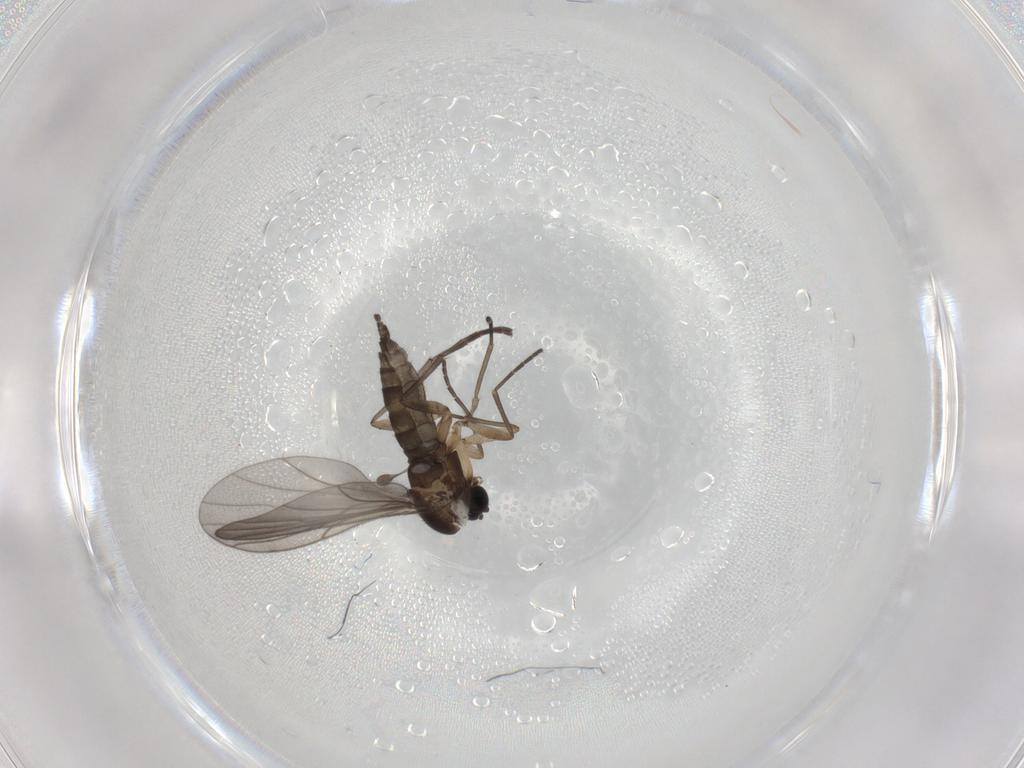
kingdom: Animalia
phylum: Arthropoda
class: Insecta
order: Diptera
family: Sciaridae
